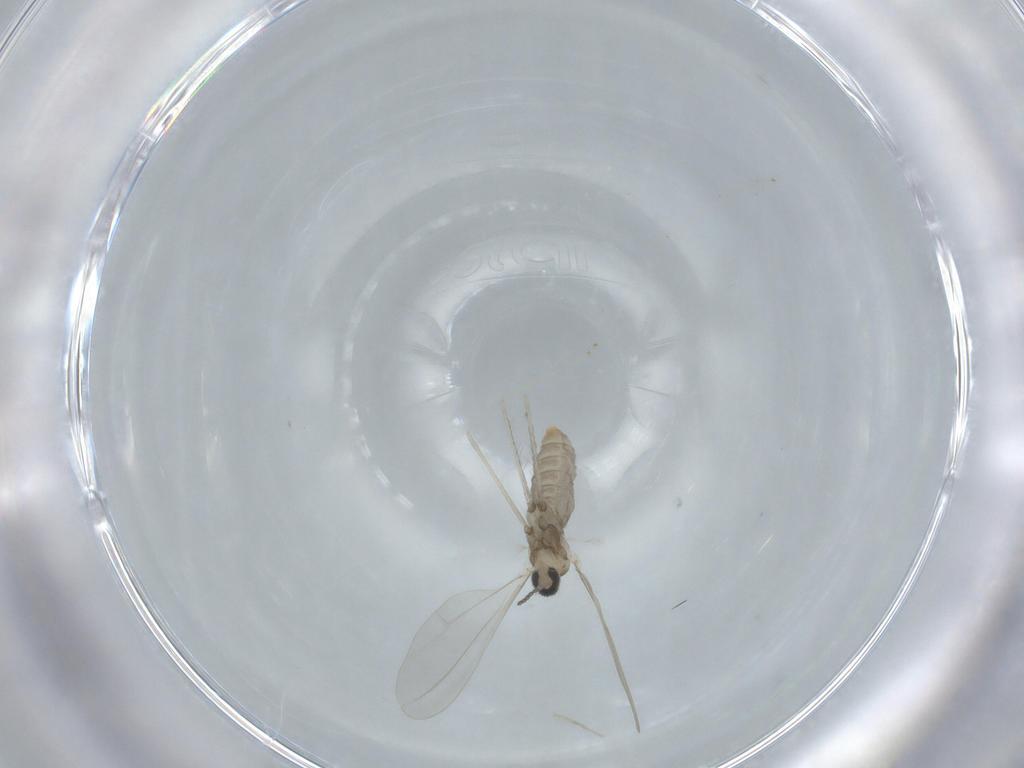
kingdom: Animalia
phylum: Arthropoda
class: Insecta
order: Diptera
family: Cecidomyiidae
